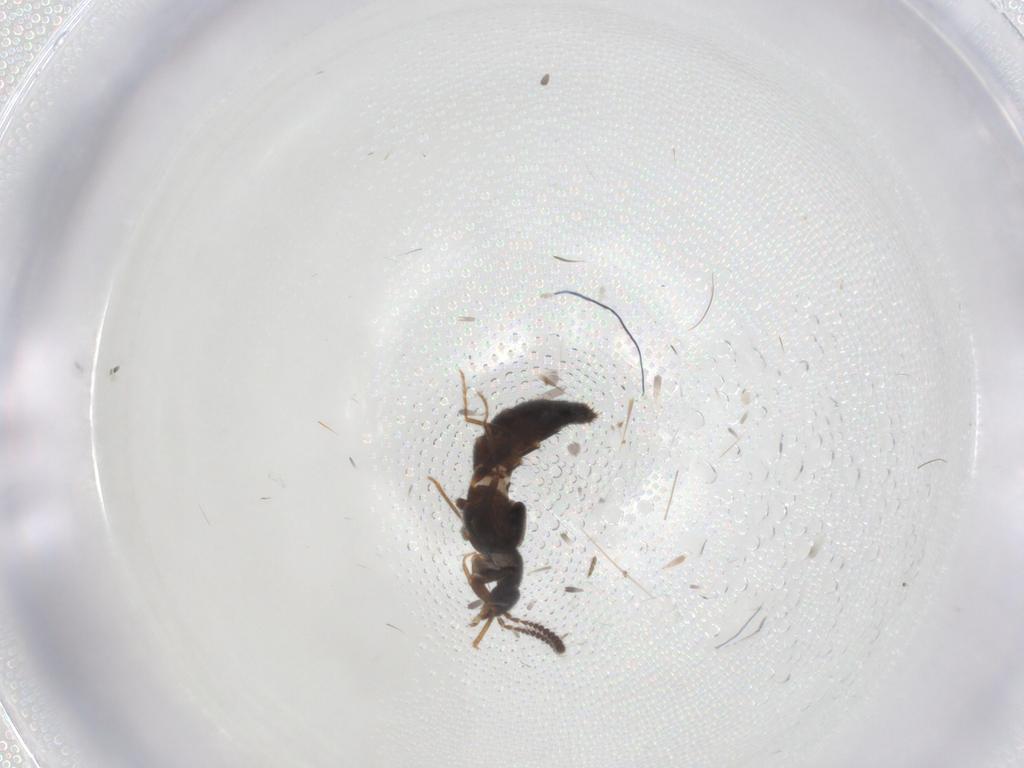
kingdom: Animalia
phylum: Arthropoda
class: Insecta
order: Coleoptera
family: Staphylinidae
